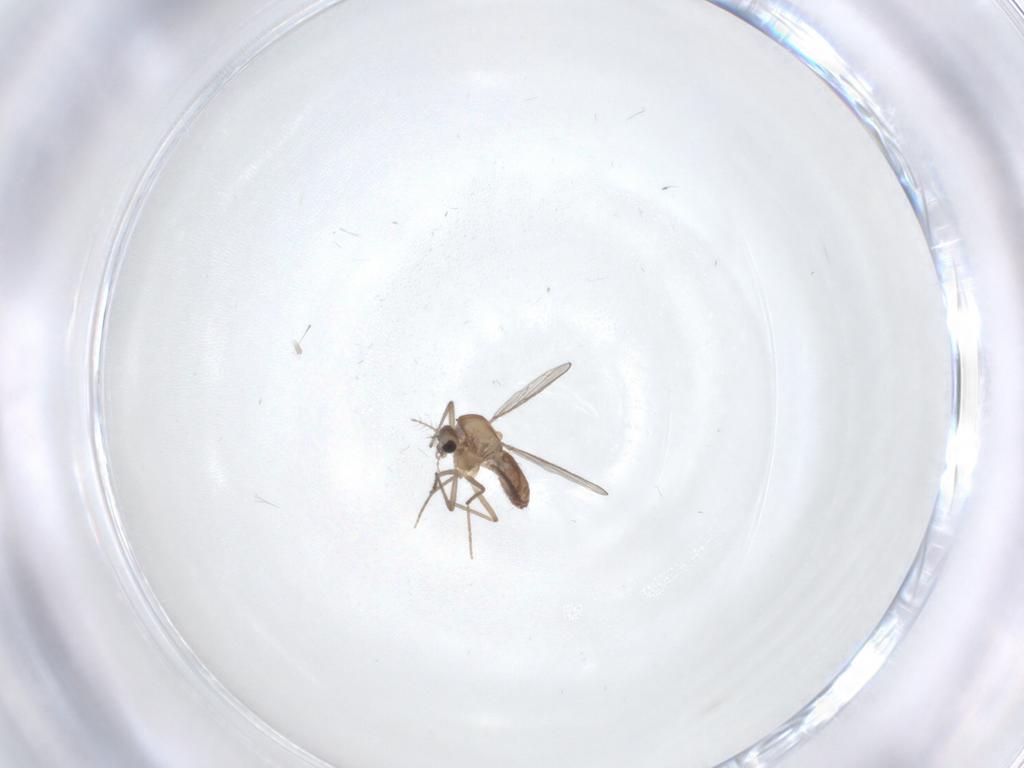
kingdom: Animalia
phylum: Arthropoda
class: Insecta
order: Diptera
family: Chironomidae
